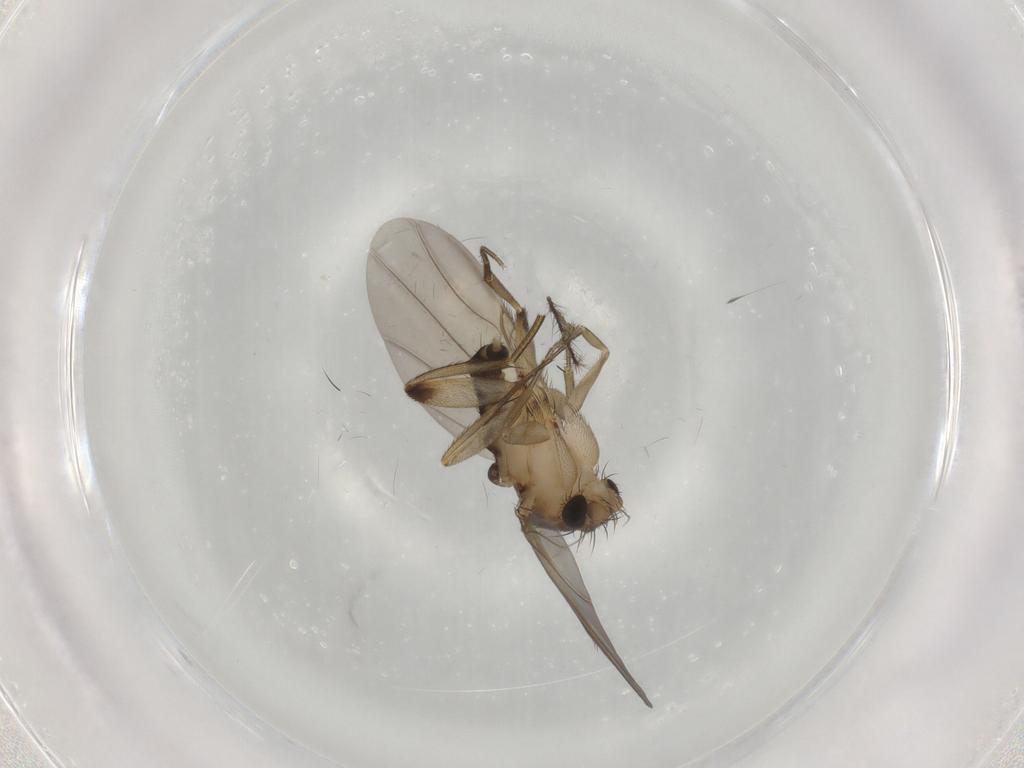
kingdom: Animalia
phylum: Arthropoda
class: Insecta
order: Diptera
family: Phoridae
